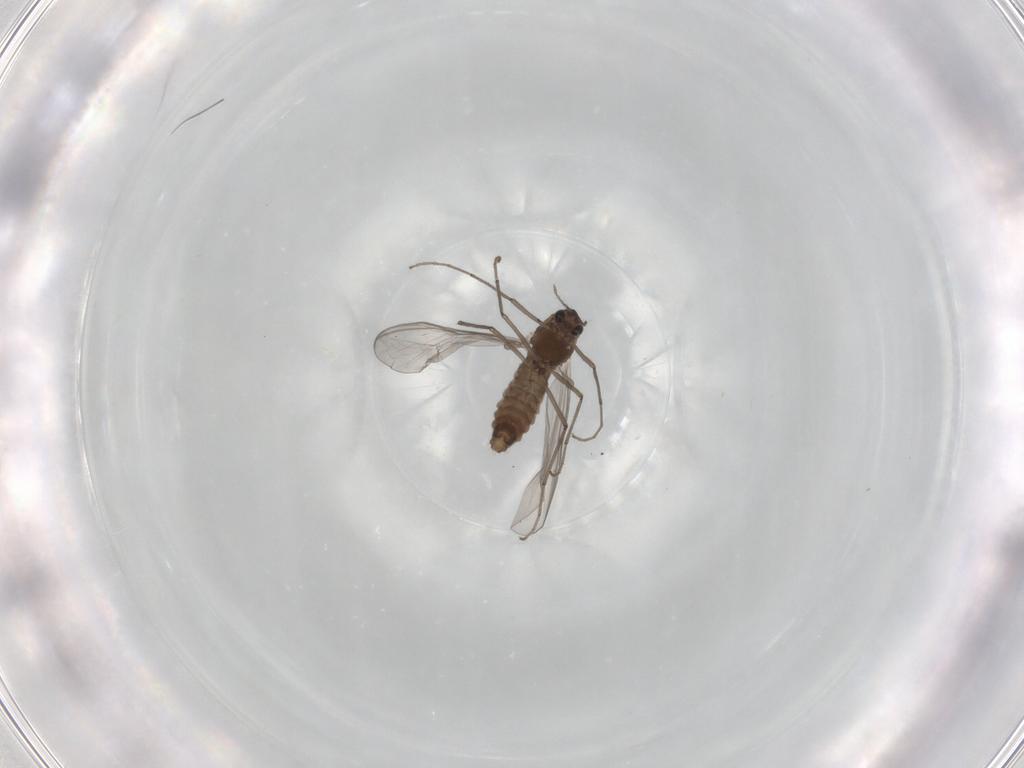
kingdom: Animalia
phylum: Arthropoda
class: Insecta
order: Diptera
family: Chironomidae
